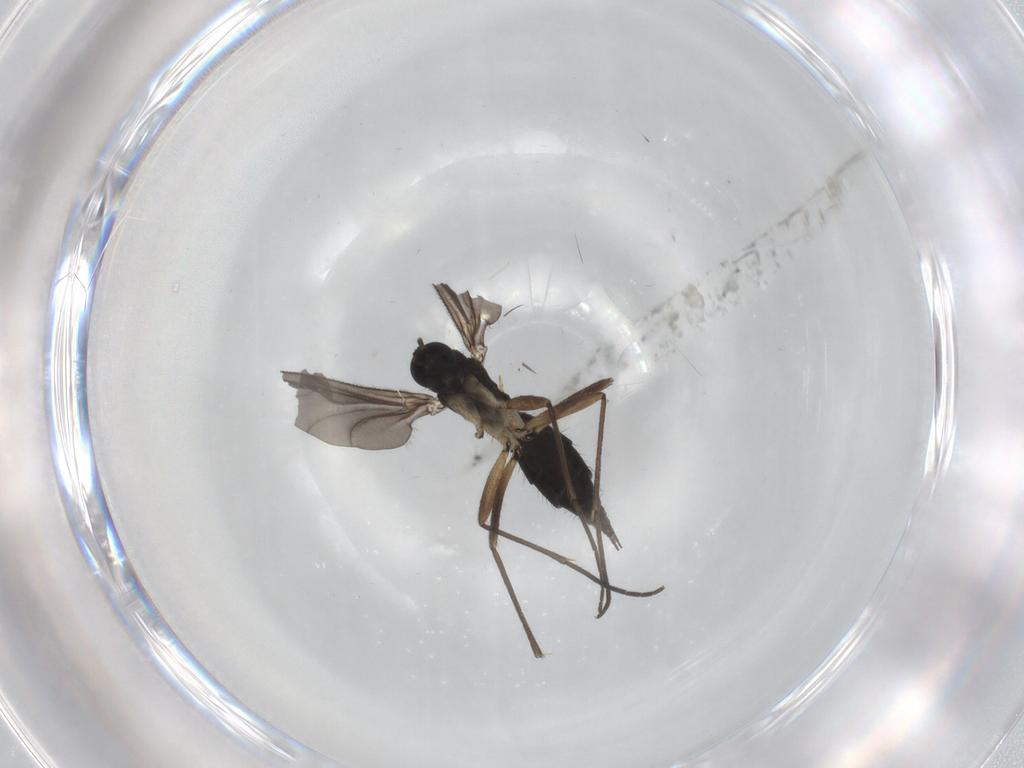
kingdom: Animalia
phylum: Arthropoda
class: Insecta
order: Diptera
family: Sciaridae
